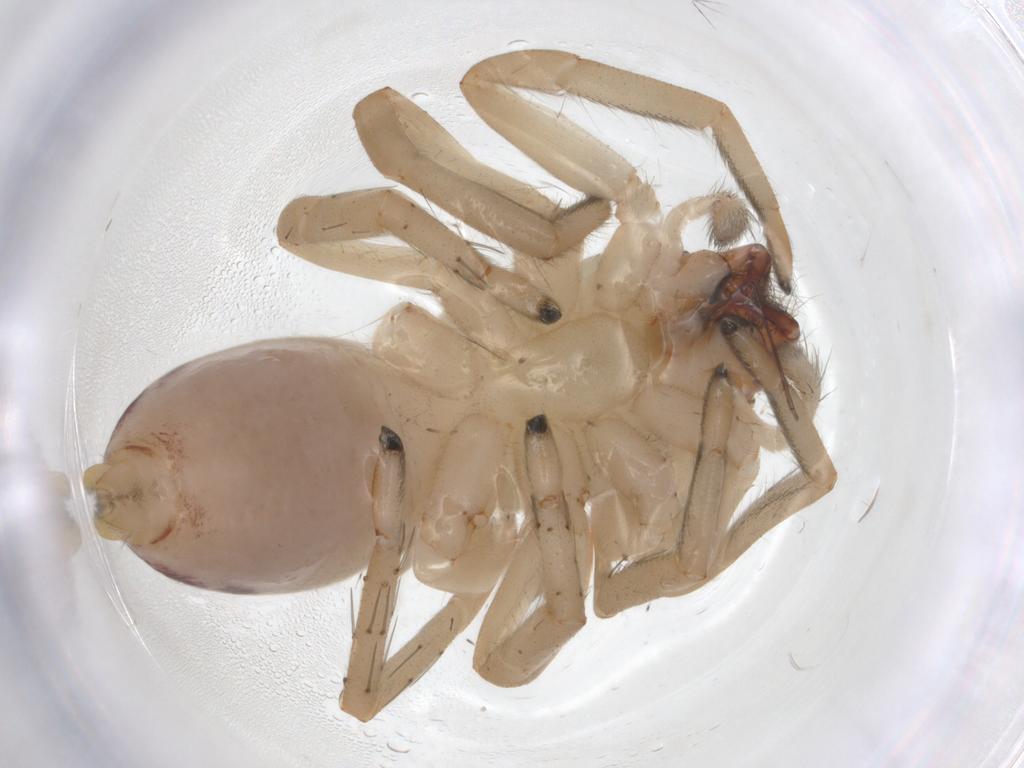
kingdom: Animalia
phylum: Arthropoda
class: Arachnida
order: Araneae
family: Clubionidae
